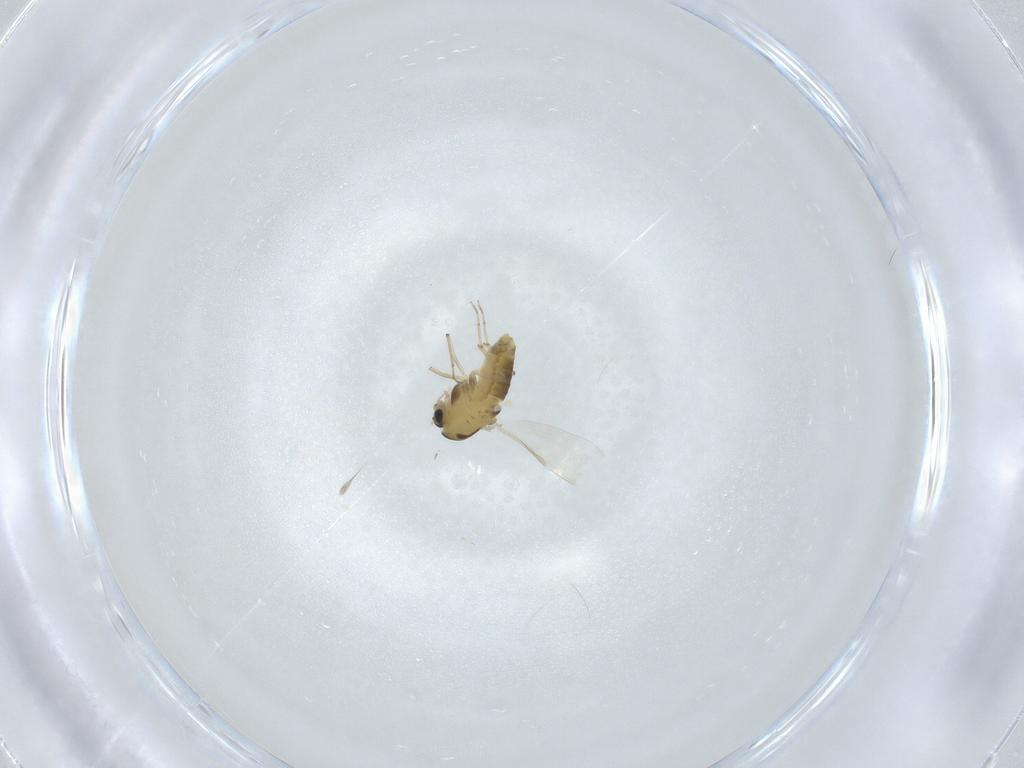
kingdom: Animalia
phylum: Arthropoda
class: Insecta
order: Diptera
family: Chironomidae
